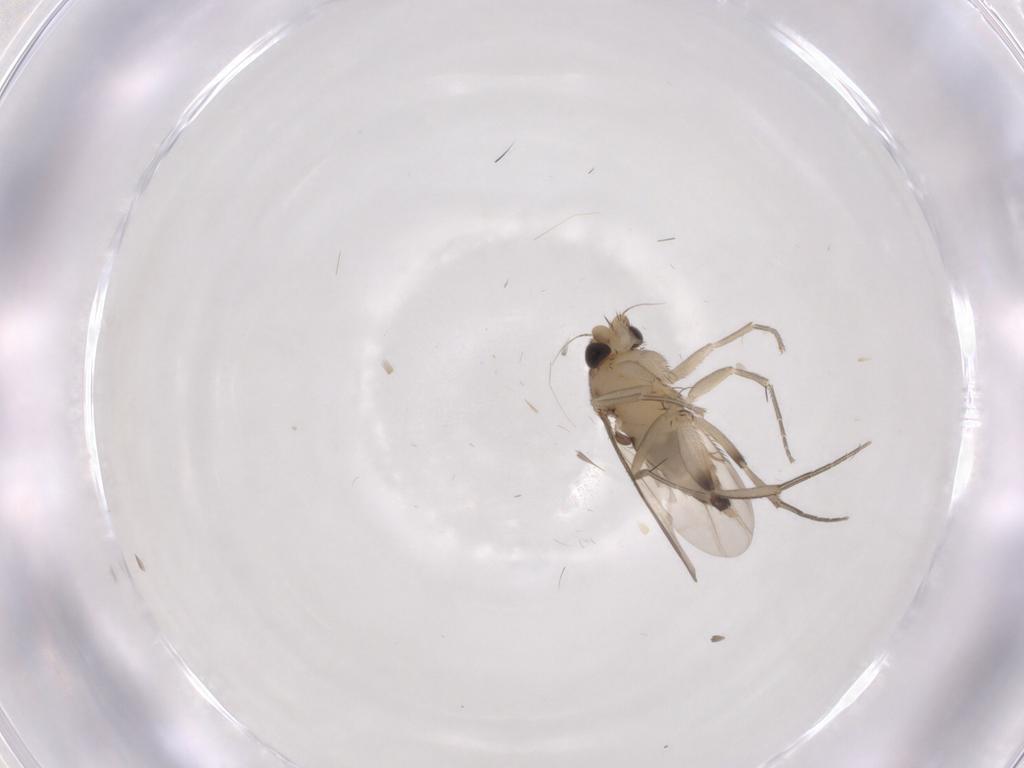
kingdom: Animalia
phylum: Arthropoda
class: Insecta
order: Diptera
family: Phoridae
